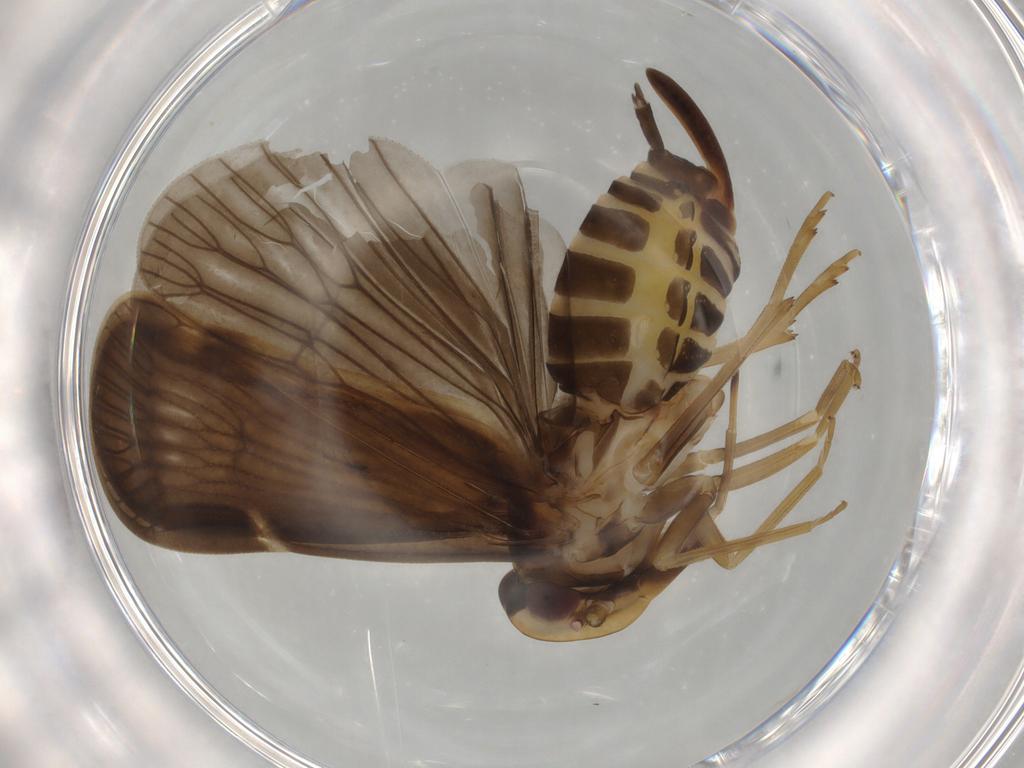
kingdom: Animalia
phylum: Arthropoda
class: Insecta
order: Hemiptera
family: Cixiidae
